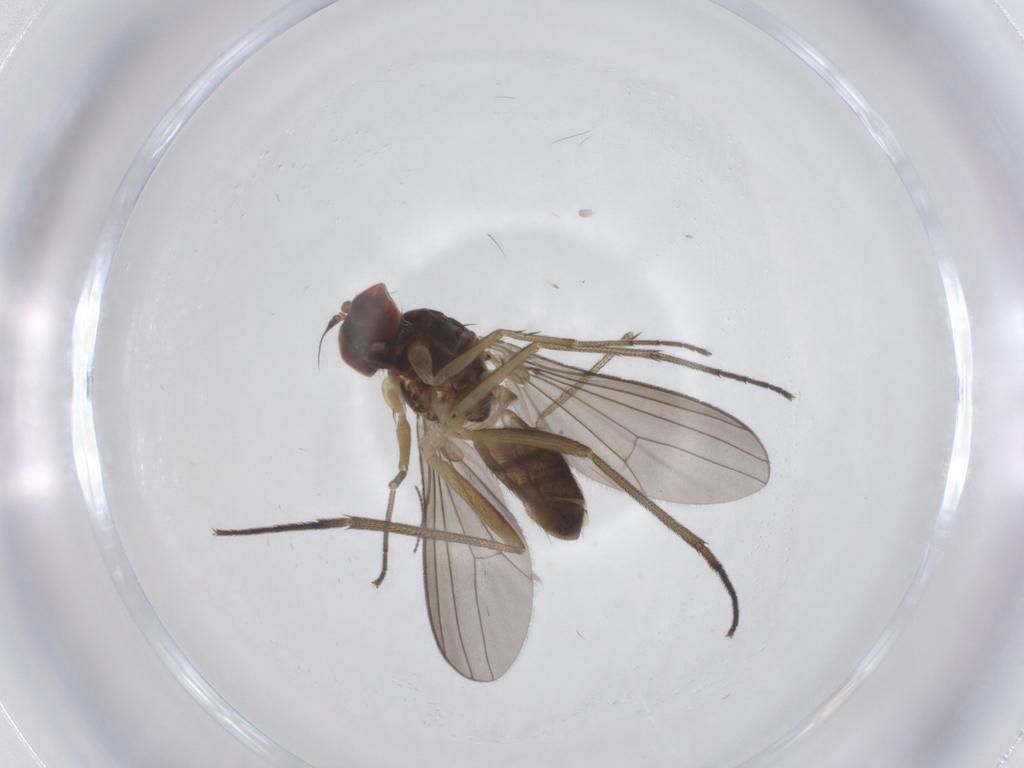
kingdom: Animalia
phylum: Arthropoda
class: Insecta
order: Diptera
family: Dolichopodidae
